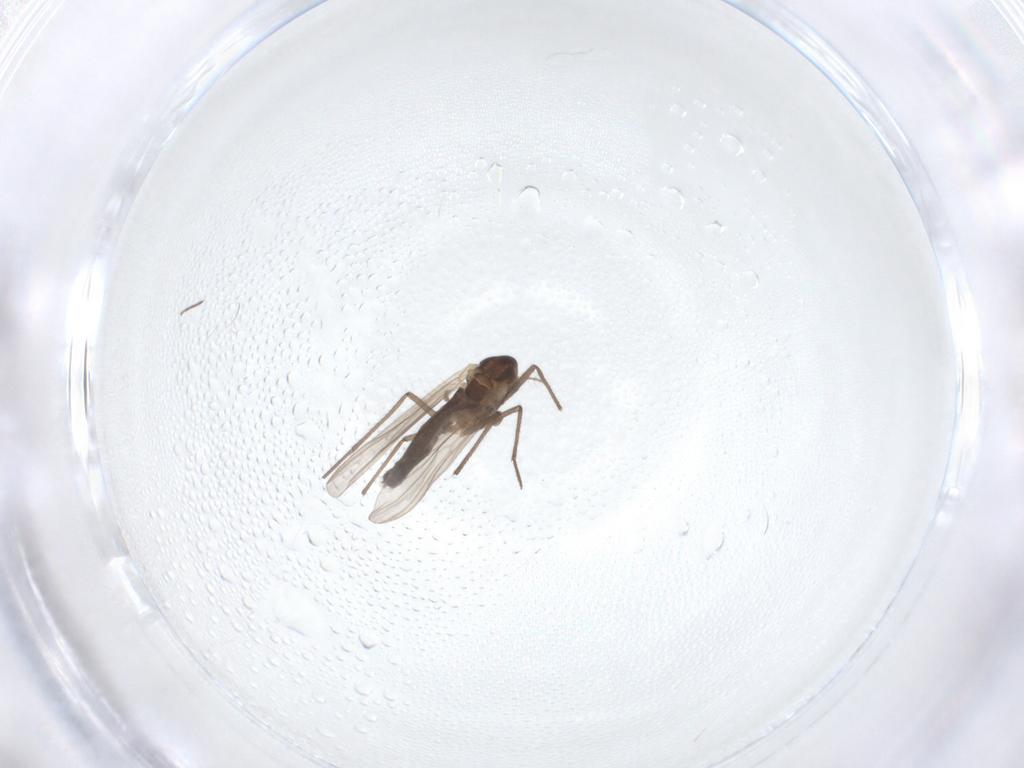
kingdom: Animalia
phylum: Arthropoda
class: Insecta
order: Diptera
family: Chironomidae
